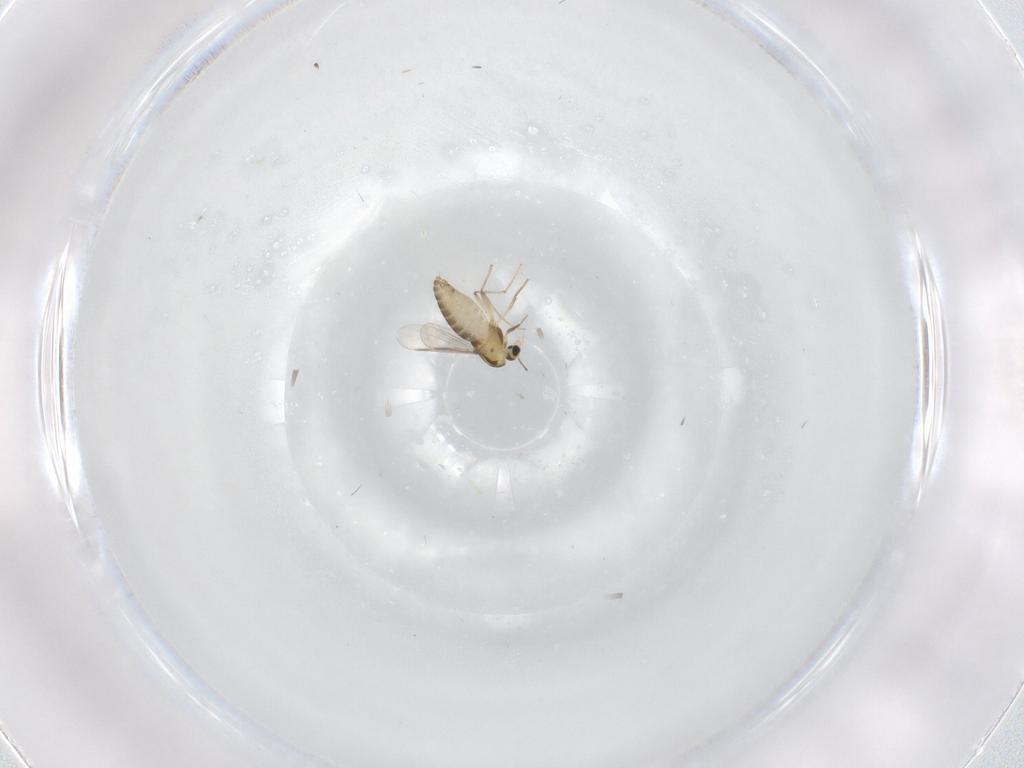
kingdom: Animalia
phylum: Arthropoda
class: Insecta
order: Diptera
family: Chironomidae
